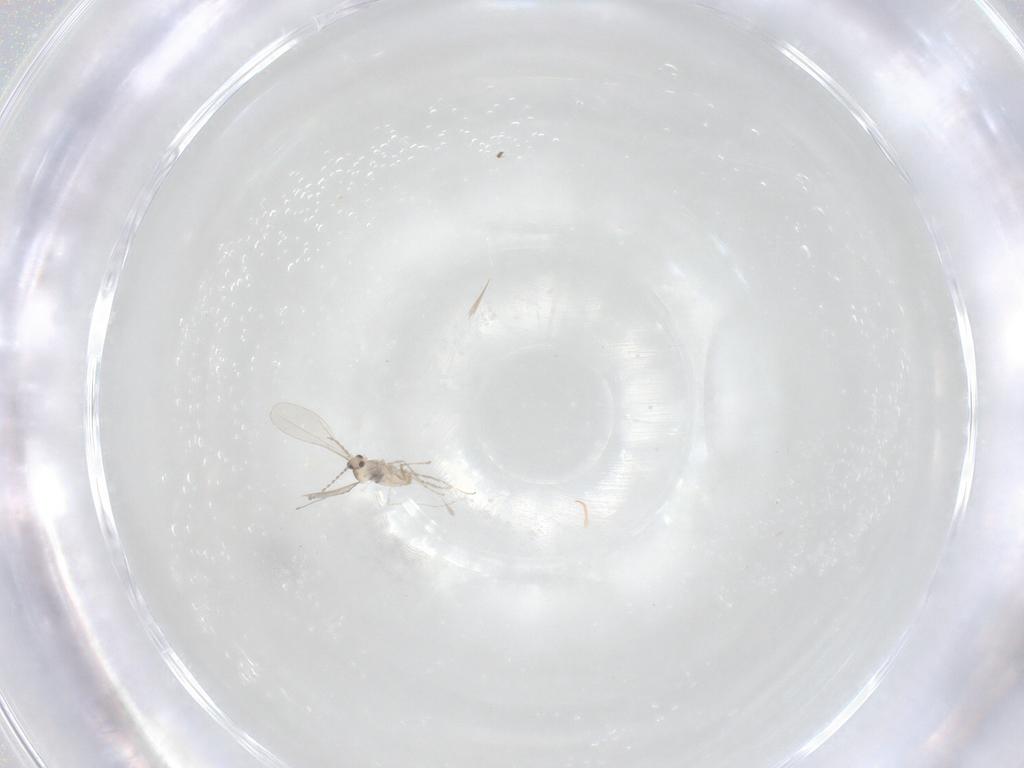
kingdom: Animalia
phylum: Arthropoda
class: Insecta
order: Diptera
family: Cecidomyiidae
